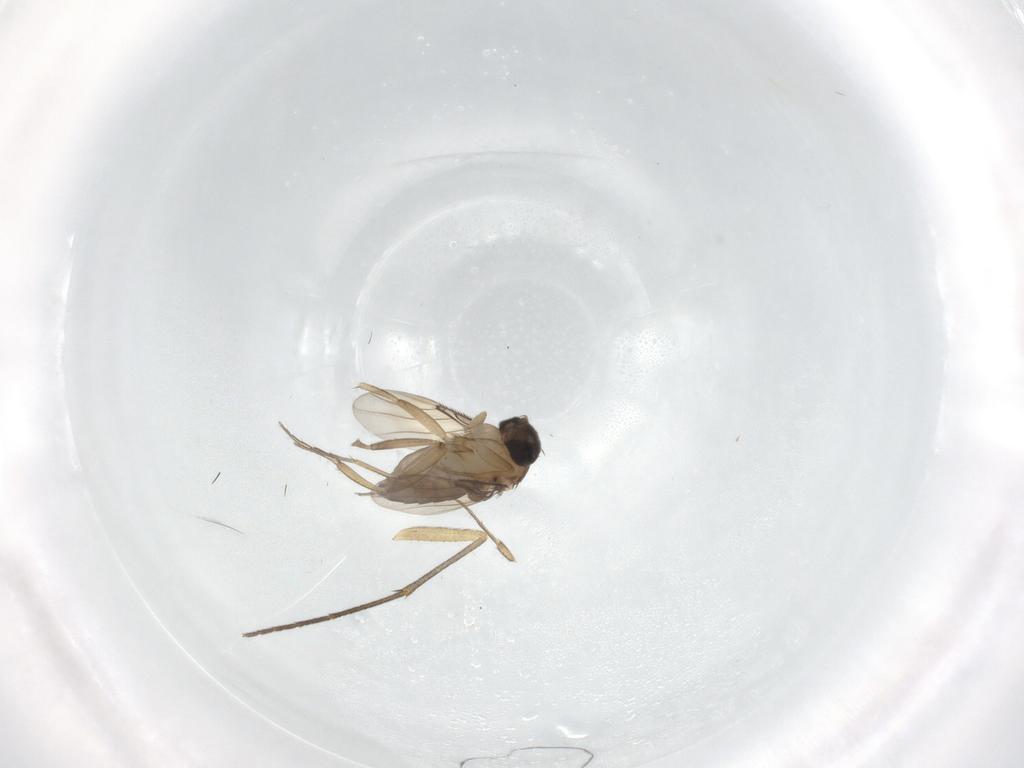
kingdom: Animalia
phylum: Arthropoda
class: Insecta
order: Diptera
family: Phoridae
